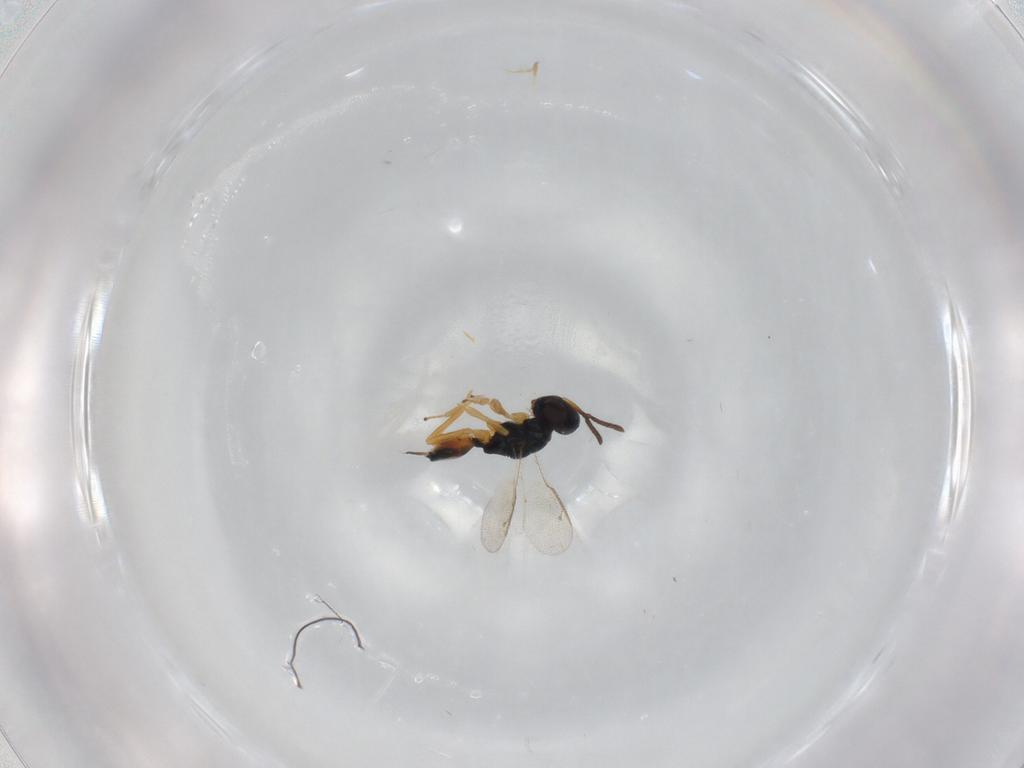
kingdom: Animalia
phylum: Arthropoda
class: Insecta
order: Hymenoptera
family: Pteromalidae
